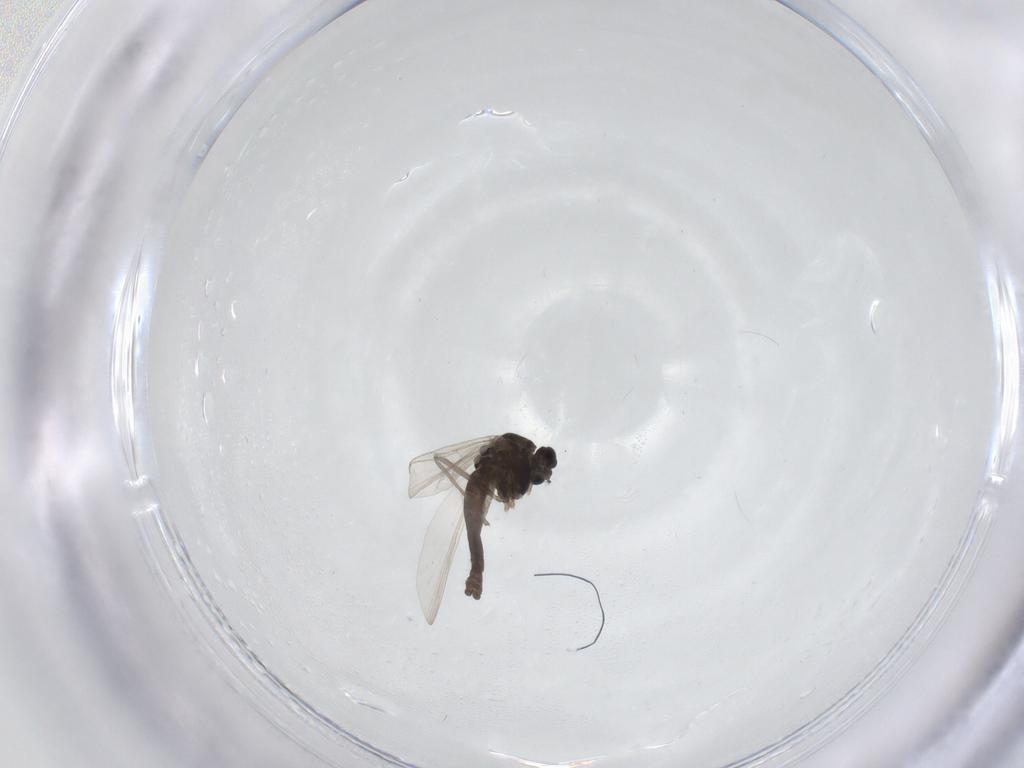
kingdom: Animalia
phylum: Arthropoda
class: Insecta
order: Diptera
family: Chironomidae
